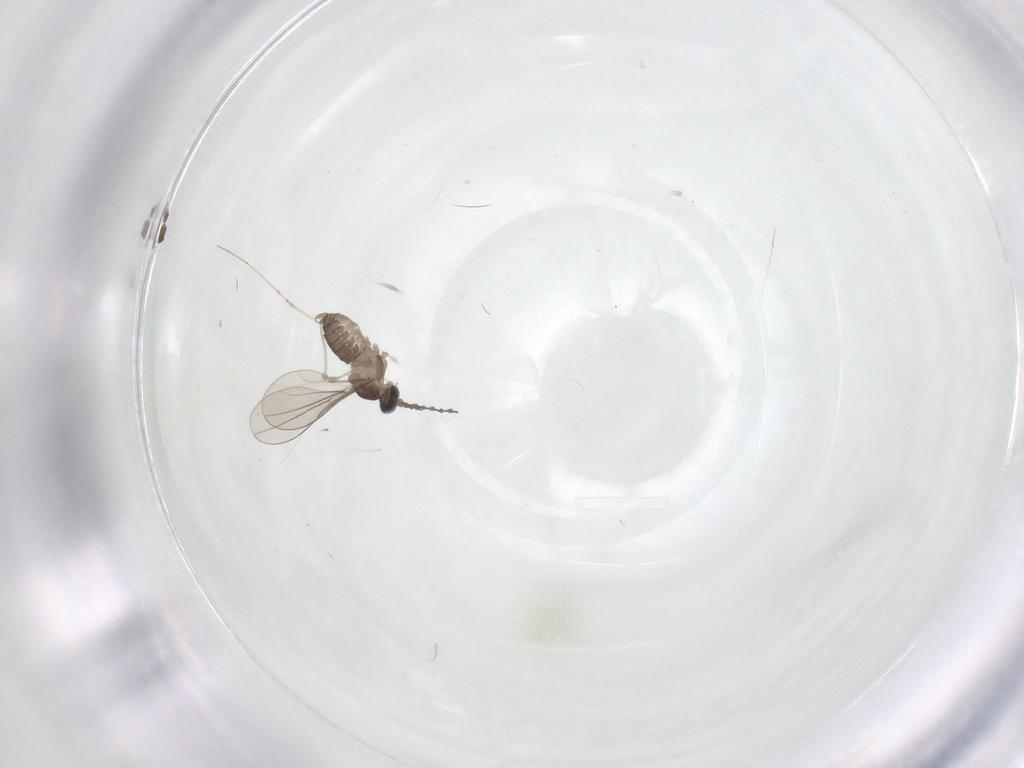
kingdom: Animalia
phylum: Arthropoda
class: Insecta
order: Diptera
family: Cecidomyiidae
